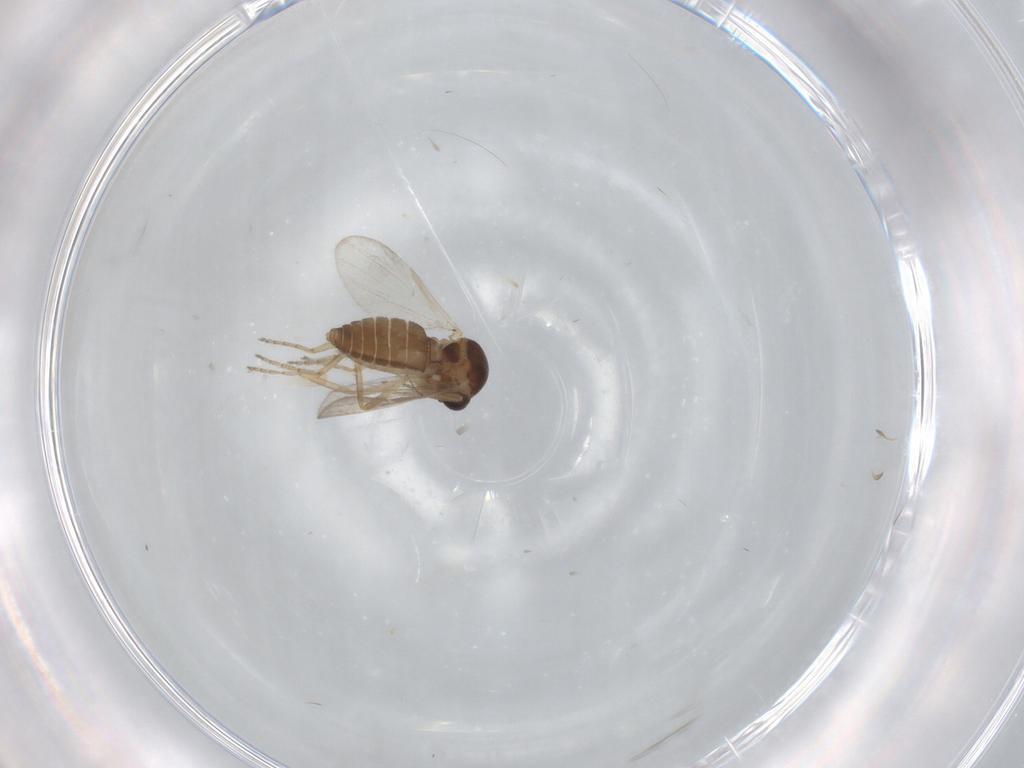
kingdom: Animalia
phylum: Arthropoda
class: Insecta
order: Diptera
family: Ceratopogonidae
